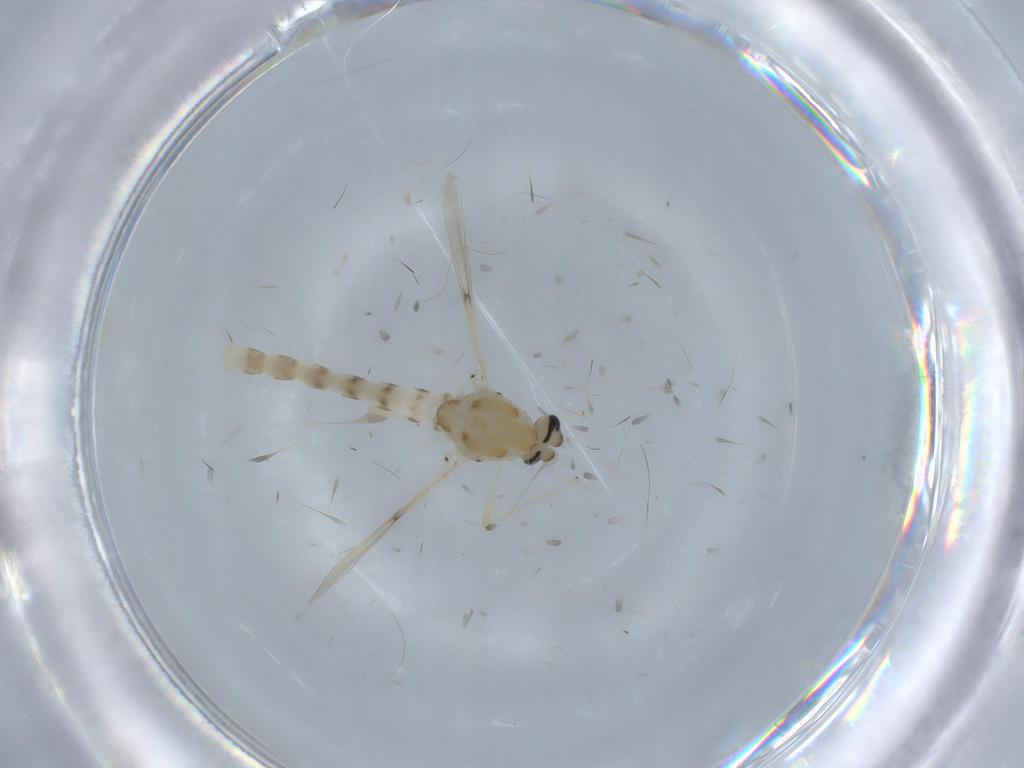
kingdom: Animalia
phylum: Arthropoda
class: Insecta
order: Diptera
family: Chironomidae
